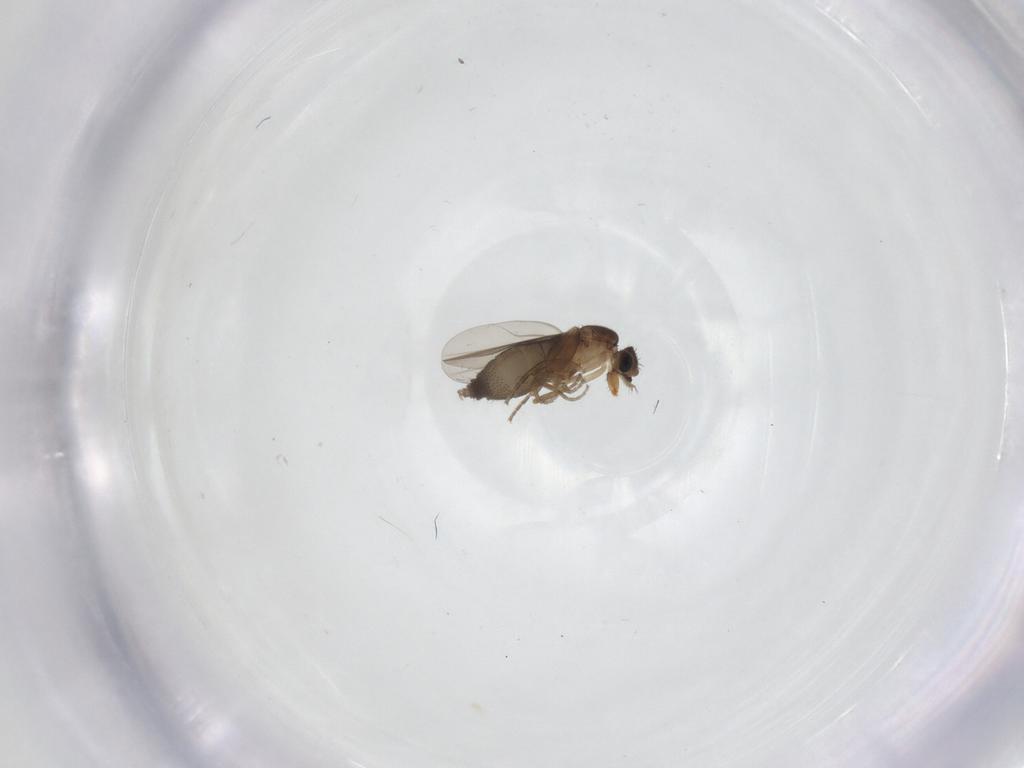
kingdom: Animalia
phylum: Arthropoda
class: Insecta
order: Diptera
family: Phoridae
